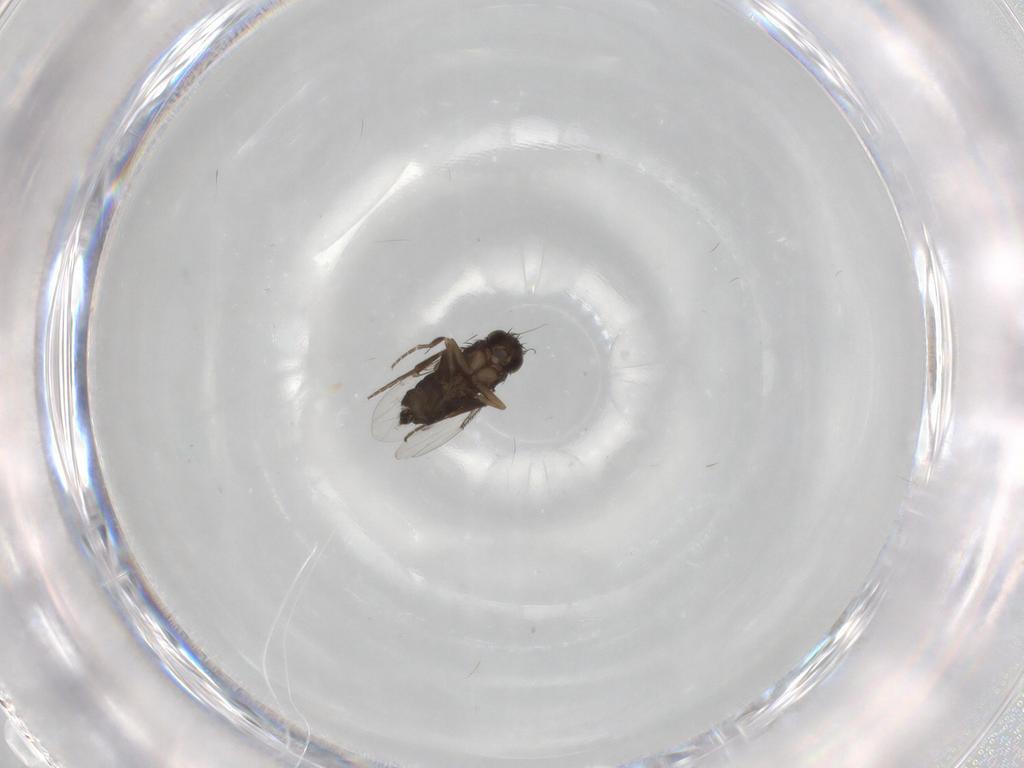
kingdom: Animalia
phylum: Arthropoda
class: Insecta
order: Diptera
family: Phoridae
